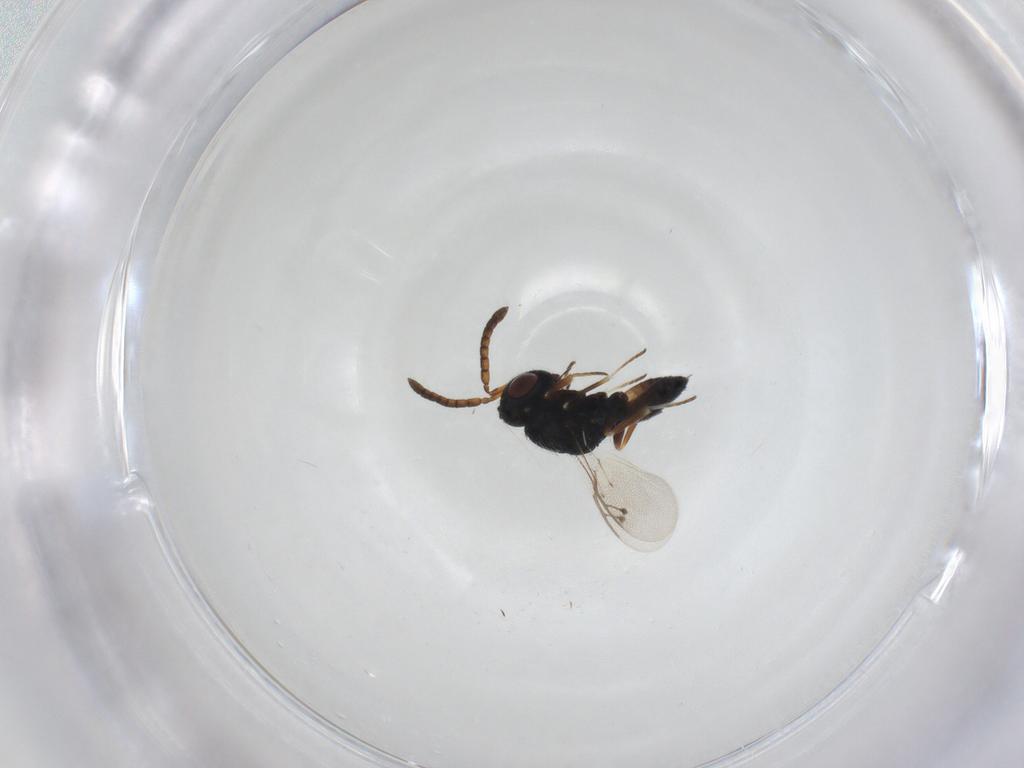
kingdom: Animalia
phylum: Arthropoda
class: Insecta
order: Hymenoptera
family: Pteromalidae
